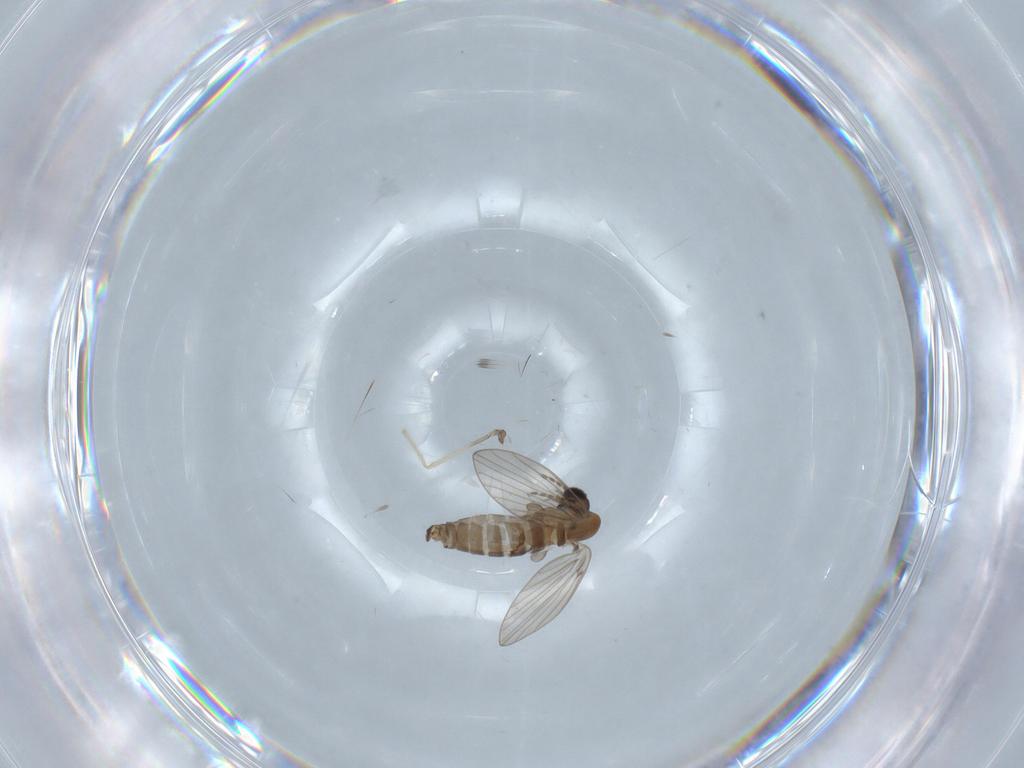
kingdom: Animalia
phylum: Arthropoda
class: Insecta
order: Diptera
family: Chironomidae
